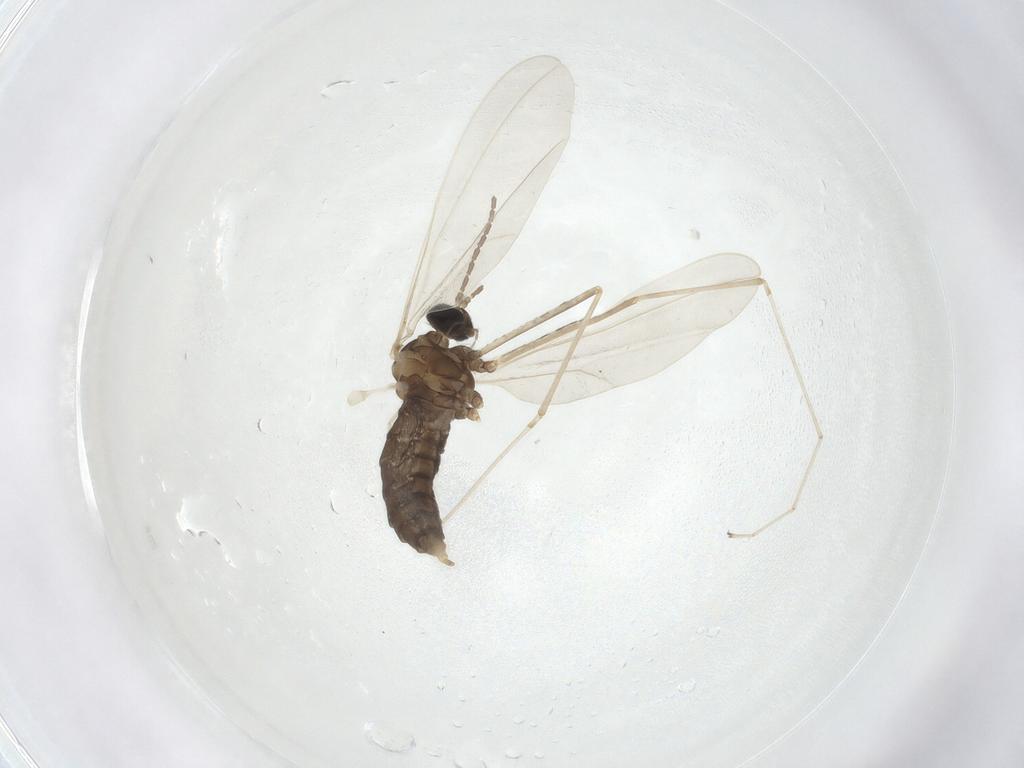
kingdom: Animalia
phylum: Arthropoda
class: Insecta
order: Diptera
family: Cecidomyiidae
